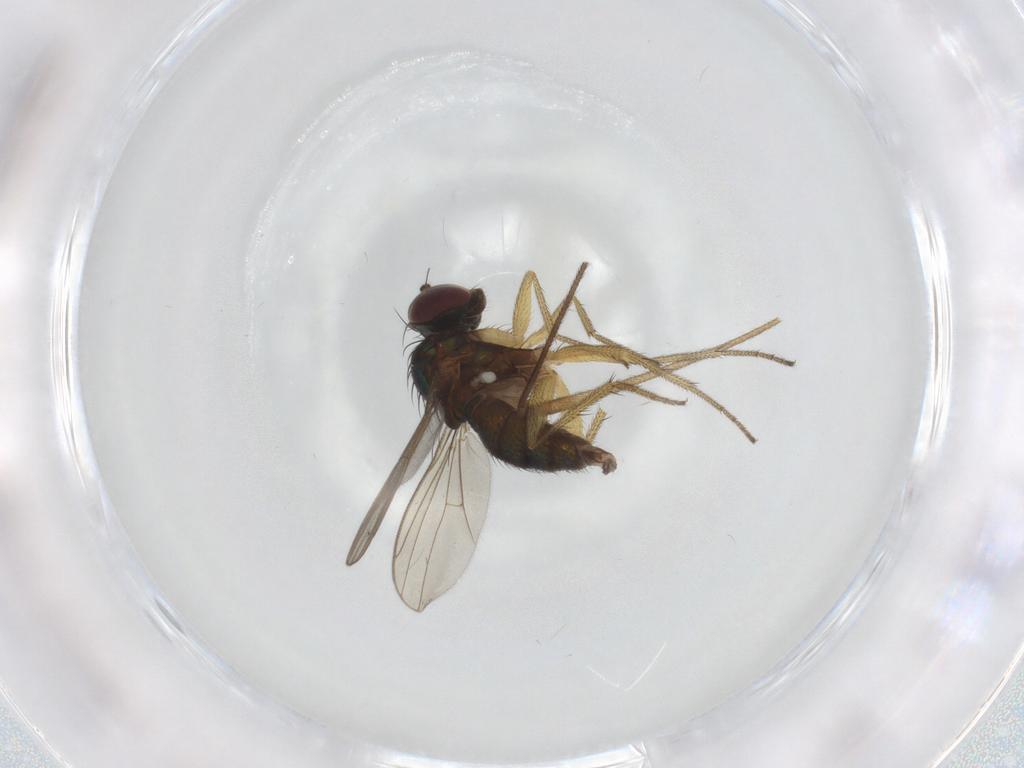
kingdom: Animalia
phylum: Arthropoda
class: Insecta
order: Diptera
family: Limoniidae
